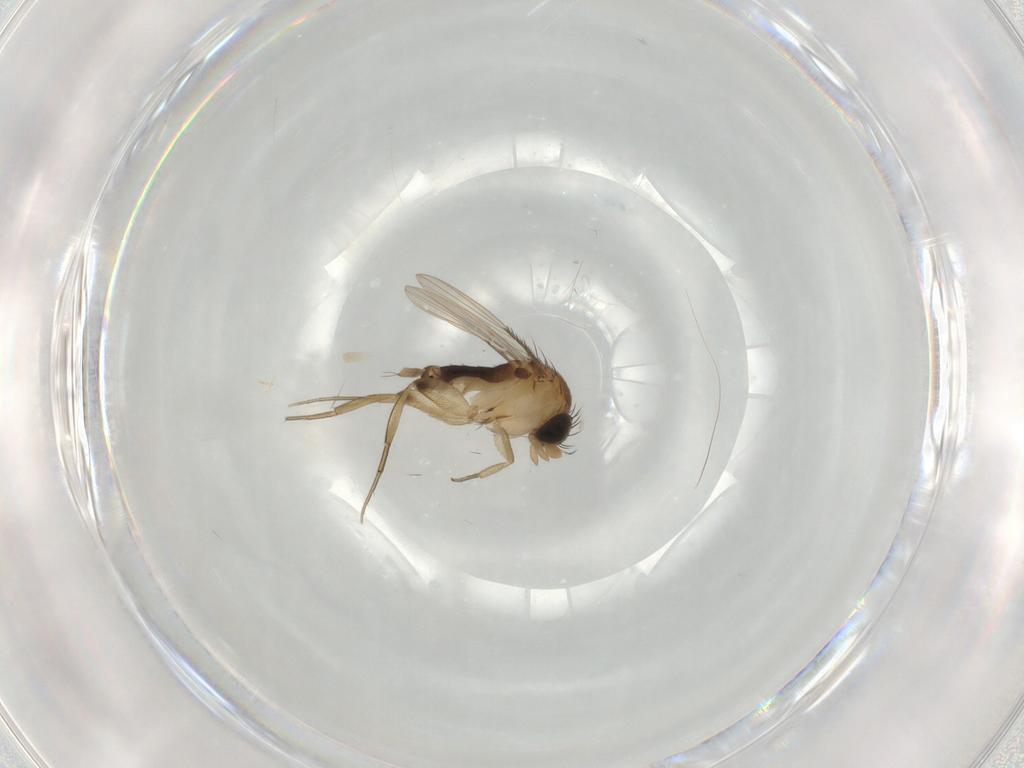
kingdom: Animalia
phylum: Arthropoda
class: Insecta
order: Diptera
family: Phoridae
